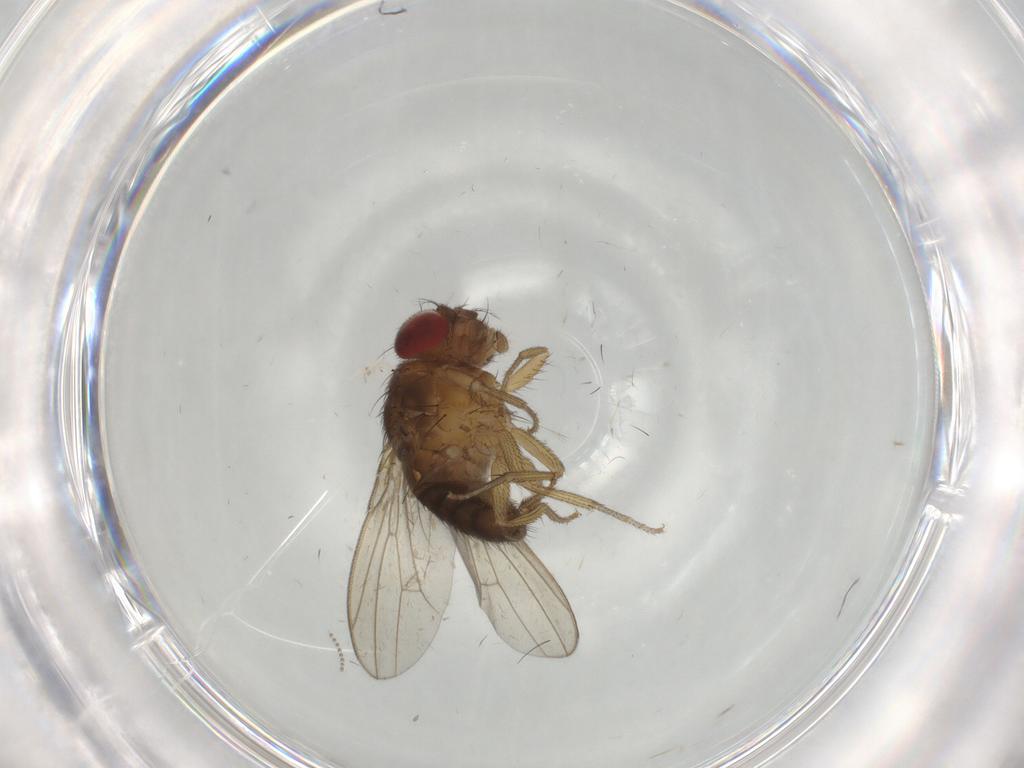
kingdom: Animalia
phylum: Arthropoda
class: Insecta
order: Diptera
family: Drosophilidae
